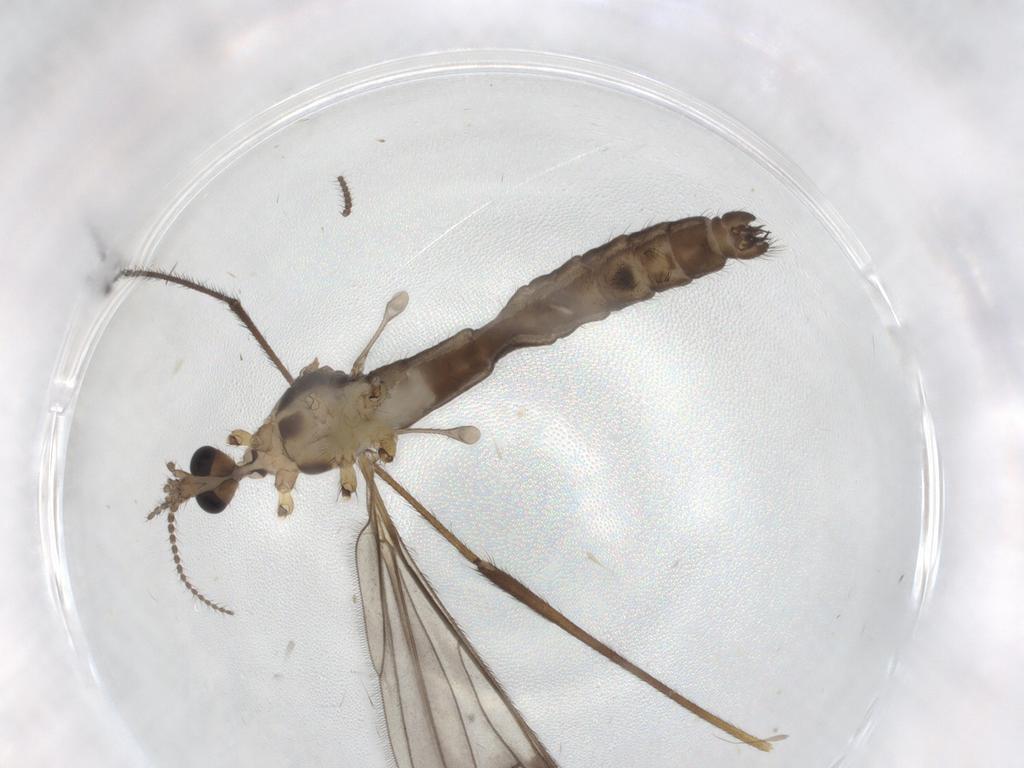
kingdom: Animalia
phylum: Arthropoda
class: Insecta
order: Diptera
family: Limoniidae
